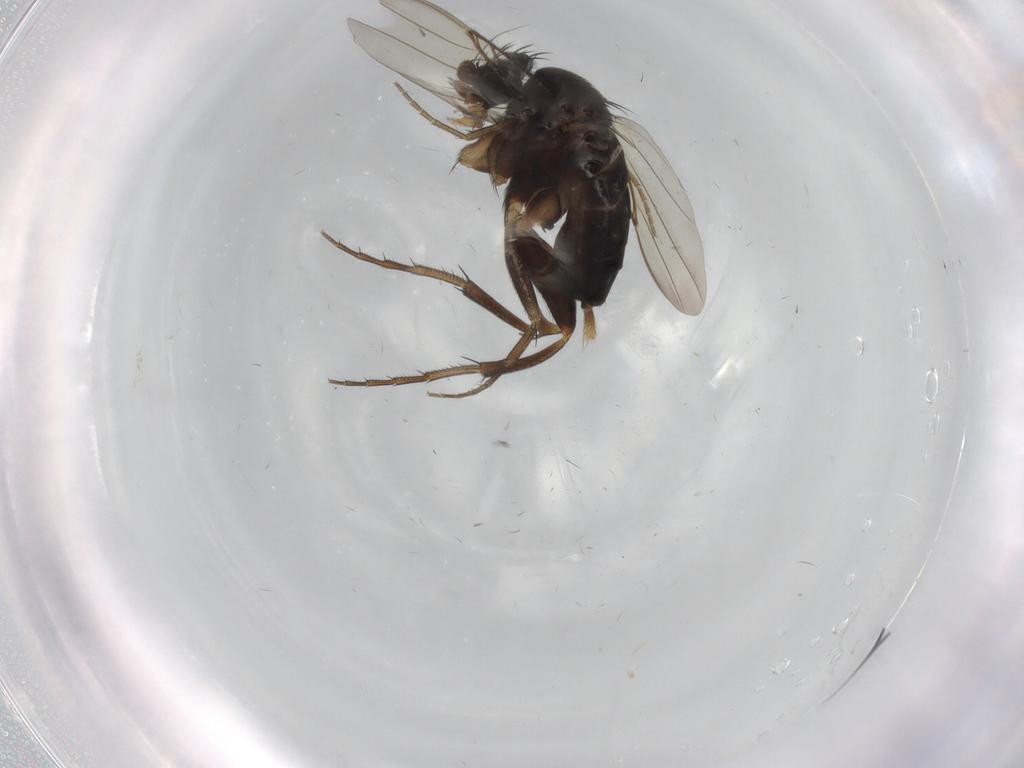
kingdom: Animalia
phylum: Arthropoda
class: Insecta
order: Diptera
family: Phoridae
